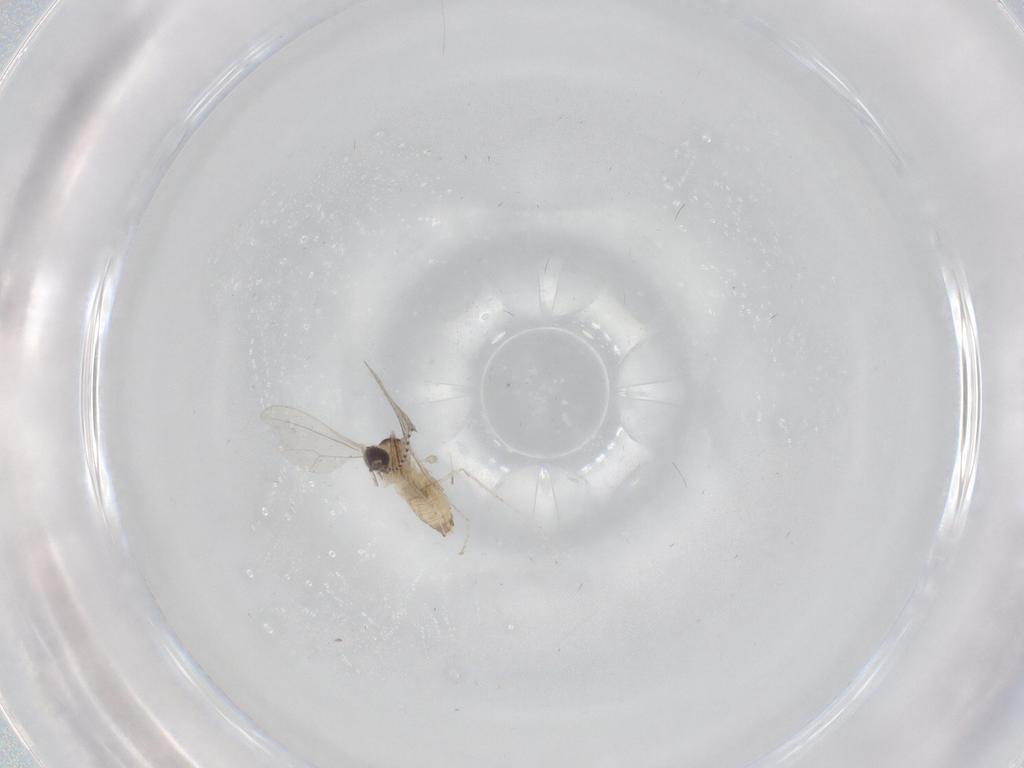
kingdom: Animalia
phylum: Arthropoda
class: Insecta
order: Diptera
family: Cecidomyiidae
